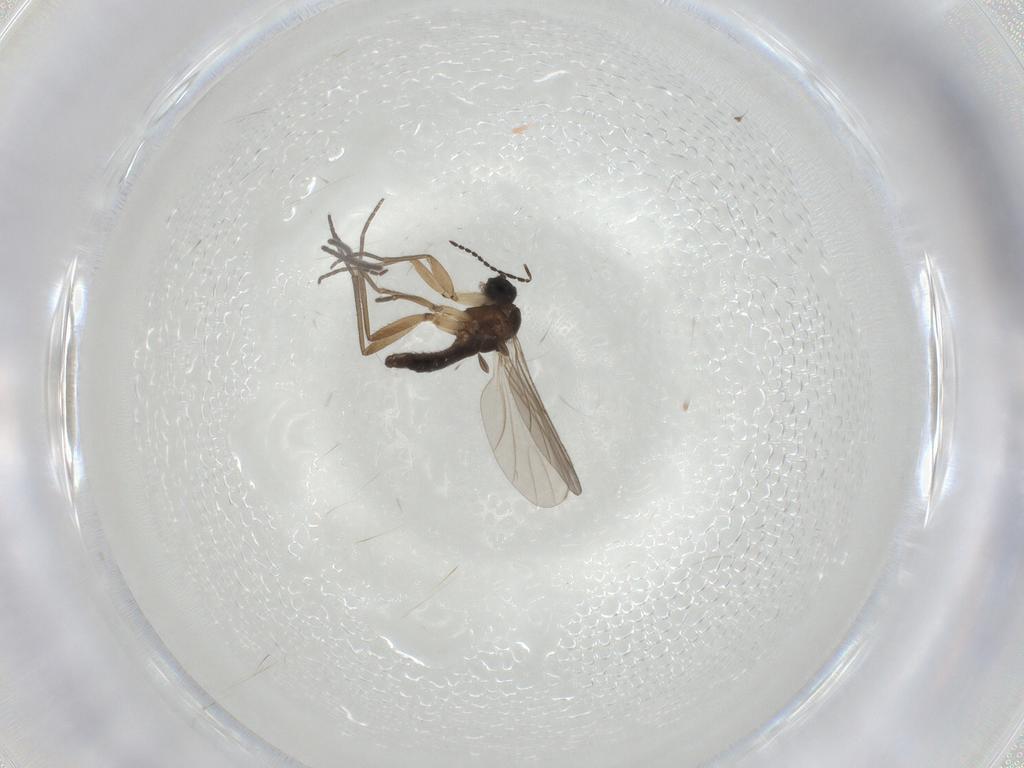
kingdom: Animalia
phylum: Arthropoda
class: Insecta
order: Diptera
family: Sciaridae
